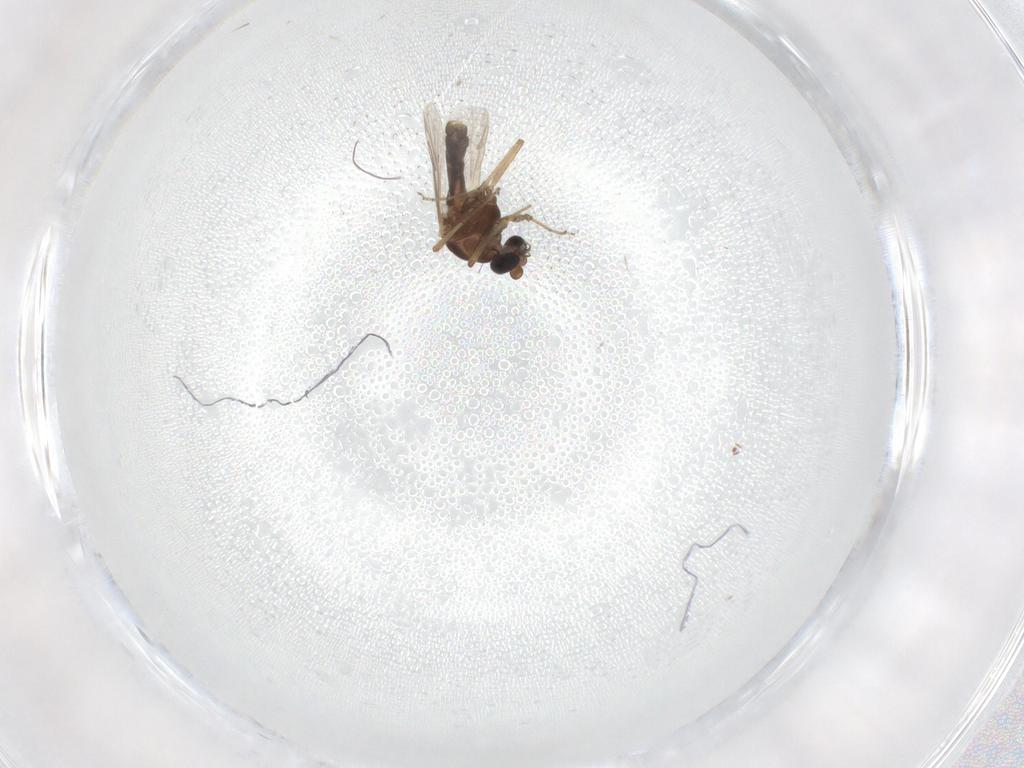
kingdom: Animalia
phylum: Arthropoda
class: Insecta
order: Diptera
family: Ceratopogonidae
